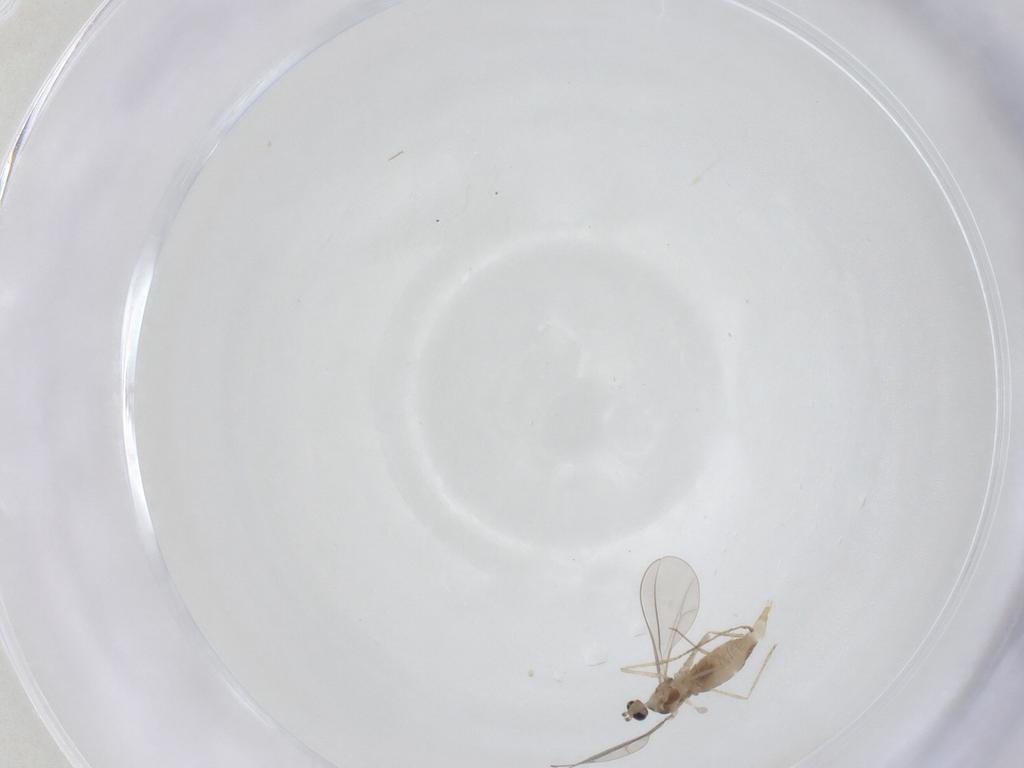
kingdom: Animalia
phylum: Arthropoda
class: Insecta
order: Diptera
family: Cecidomyiidae
